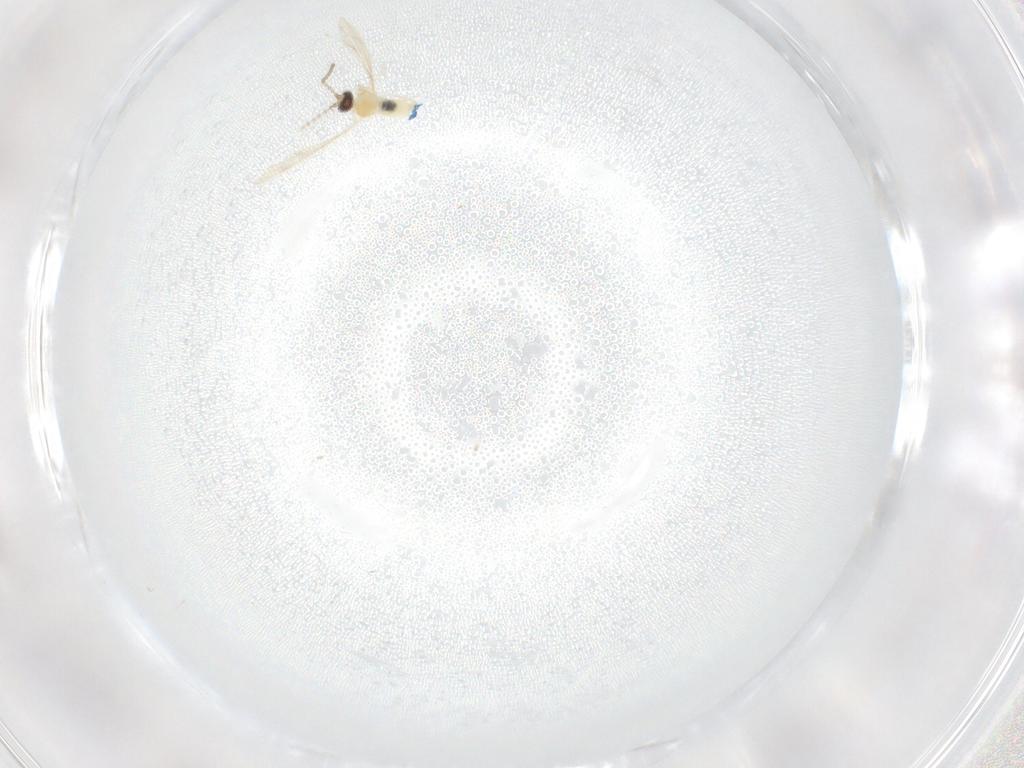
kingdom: Animalia
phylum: Arthropoda
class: Insecta
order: Diptera
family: Cecidomyiidae
